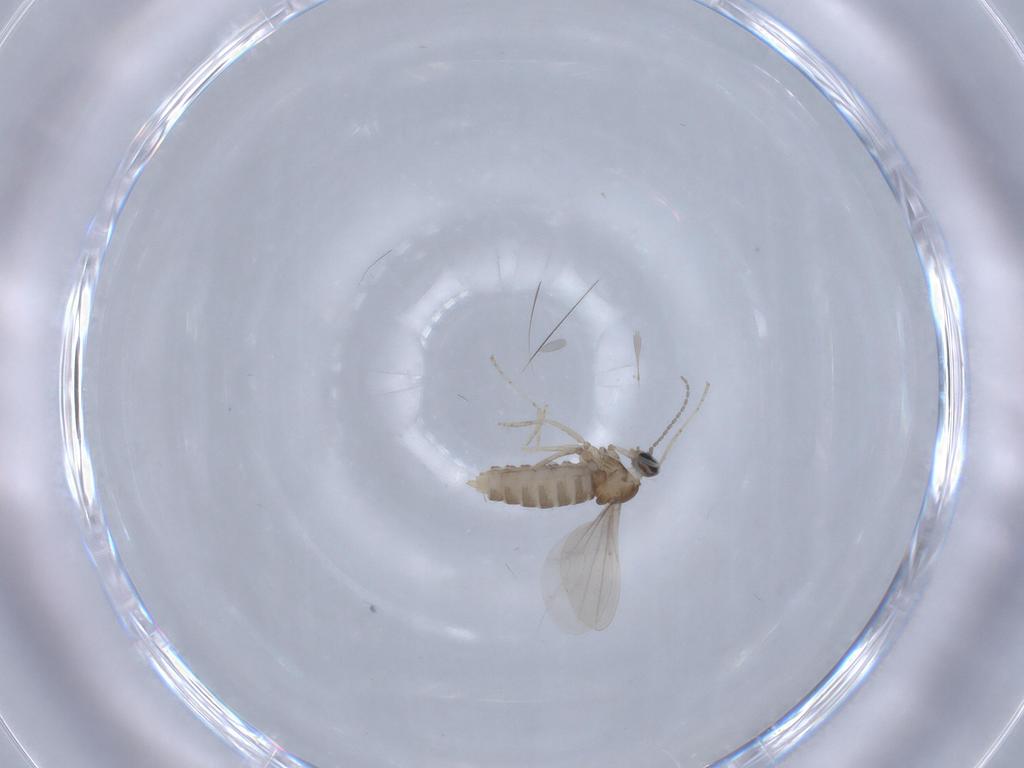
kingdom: Animalia
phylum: Arthropoda
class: Insecta
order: Diptera
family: Cecidomyiidae
